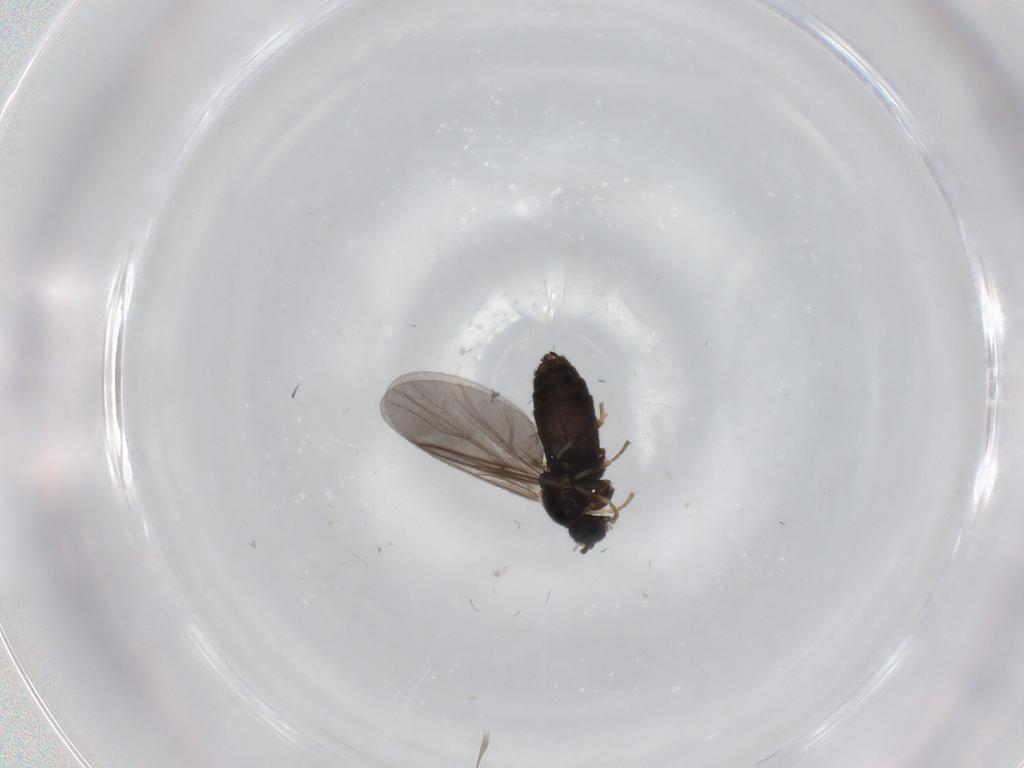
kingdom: Animalia
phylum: Arthropoda
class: Insecta
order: Diptera
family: Scatopsidae
